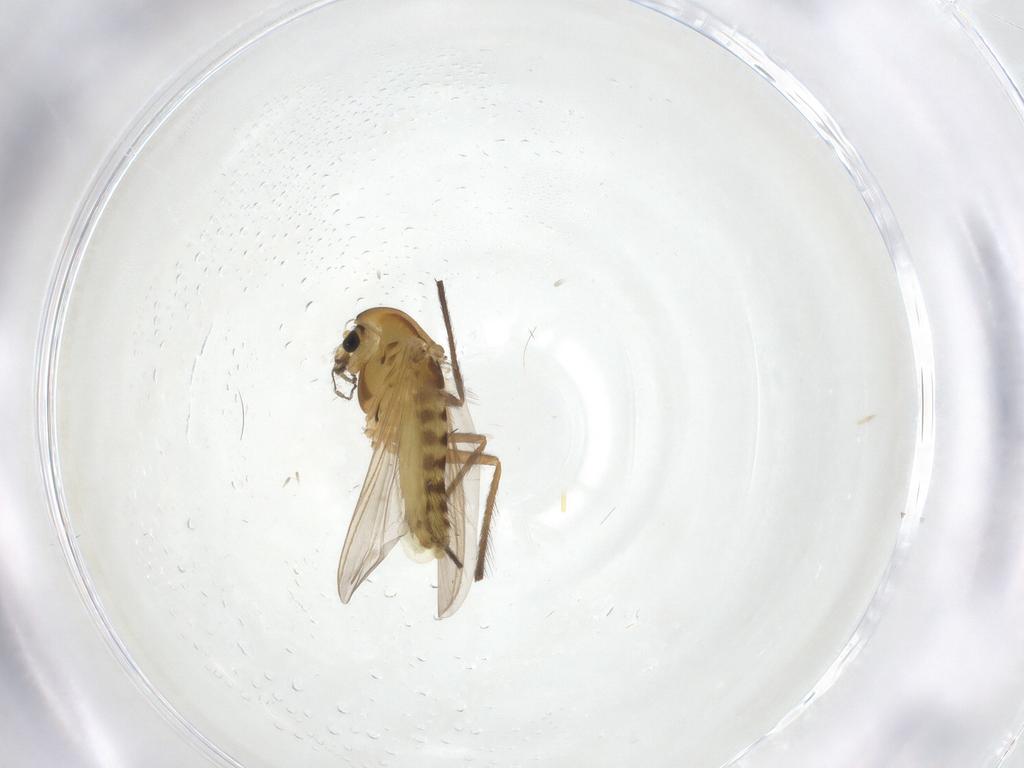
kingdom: Animalia
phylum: Arthropoda
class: Insecta
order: Diptera
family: Chironomidae
